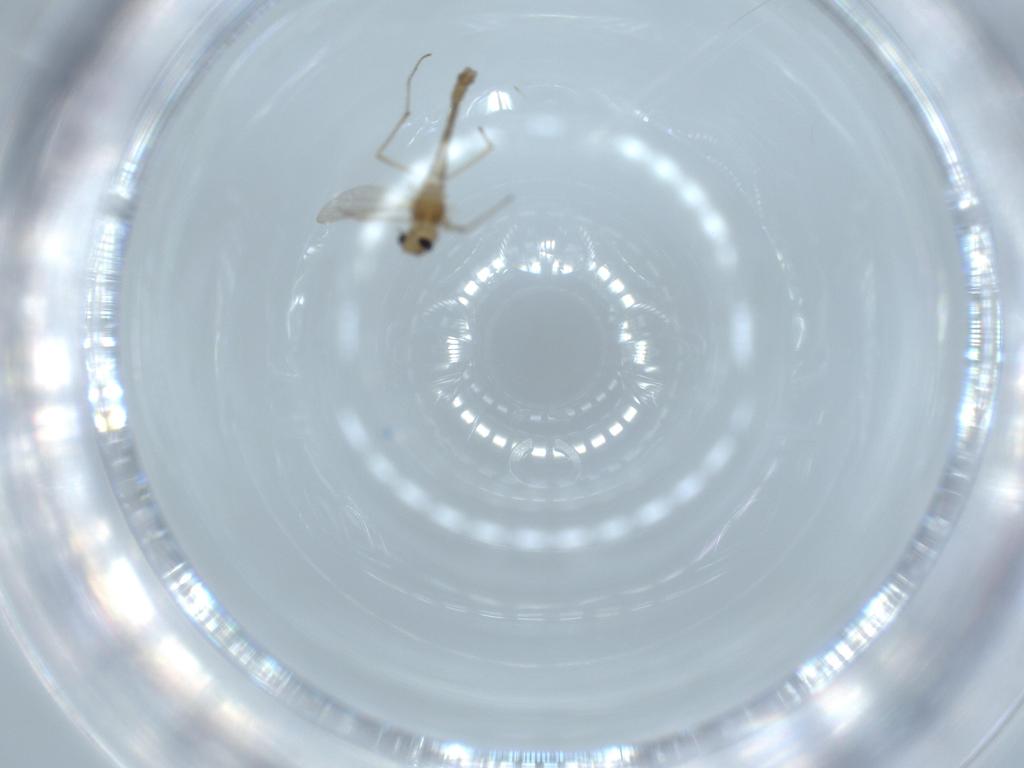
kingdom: Animalia
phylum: Arthropoda
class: Insecta
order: Diptera
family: Chironomidae
